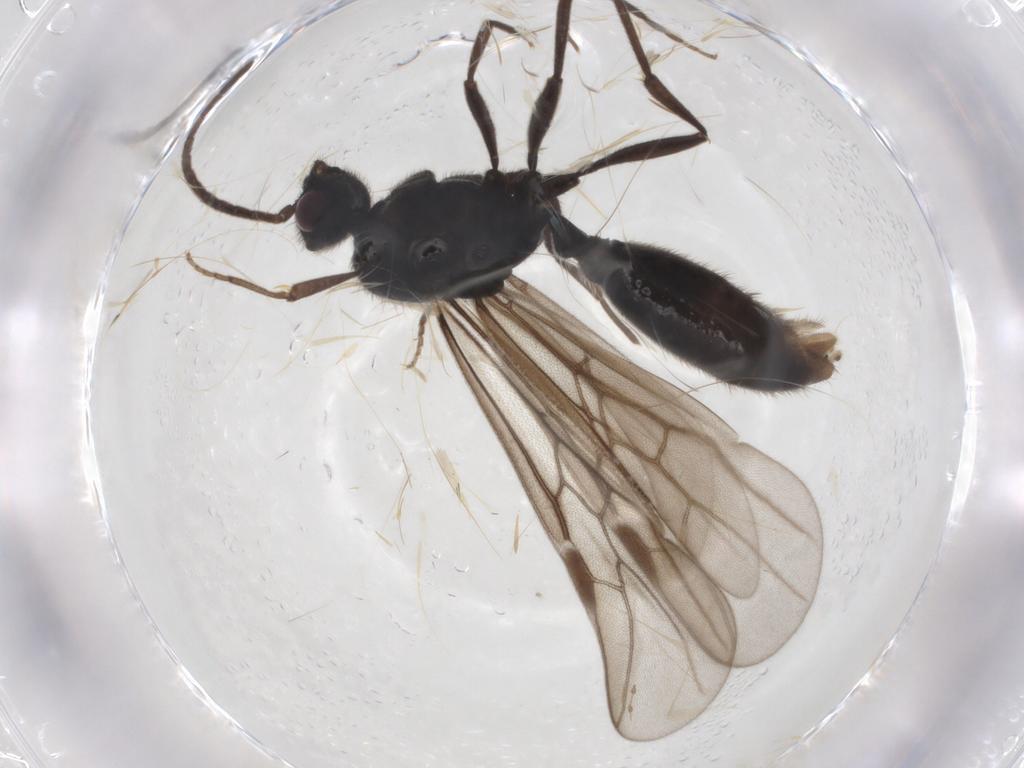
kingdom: Animalia
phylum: Arthropoda
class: Insecta
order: Hymenoptera
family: Formicidae
